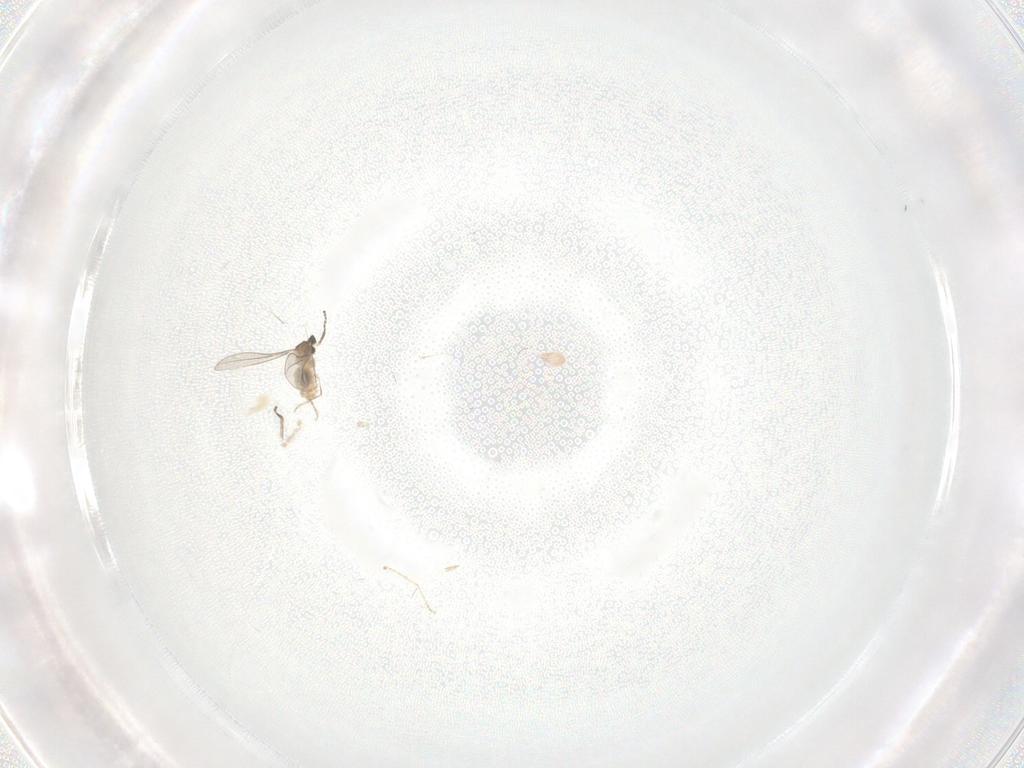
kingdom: Animalia
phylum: Arthropoda
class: Insecta
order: Diptera
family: Cecidomyiidae
